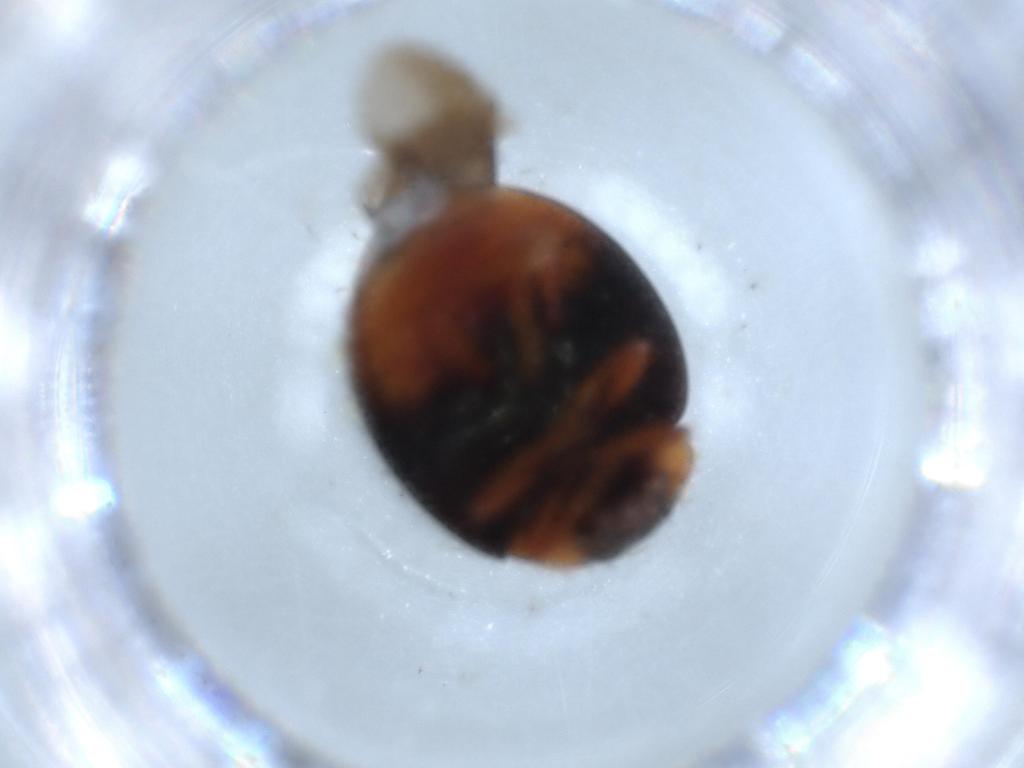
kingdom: Animalia
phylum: Arthropoda
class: Insecta
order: Coleoptera
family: Coccinellidae
